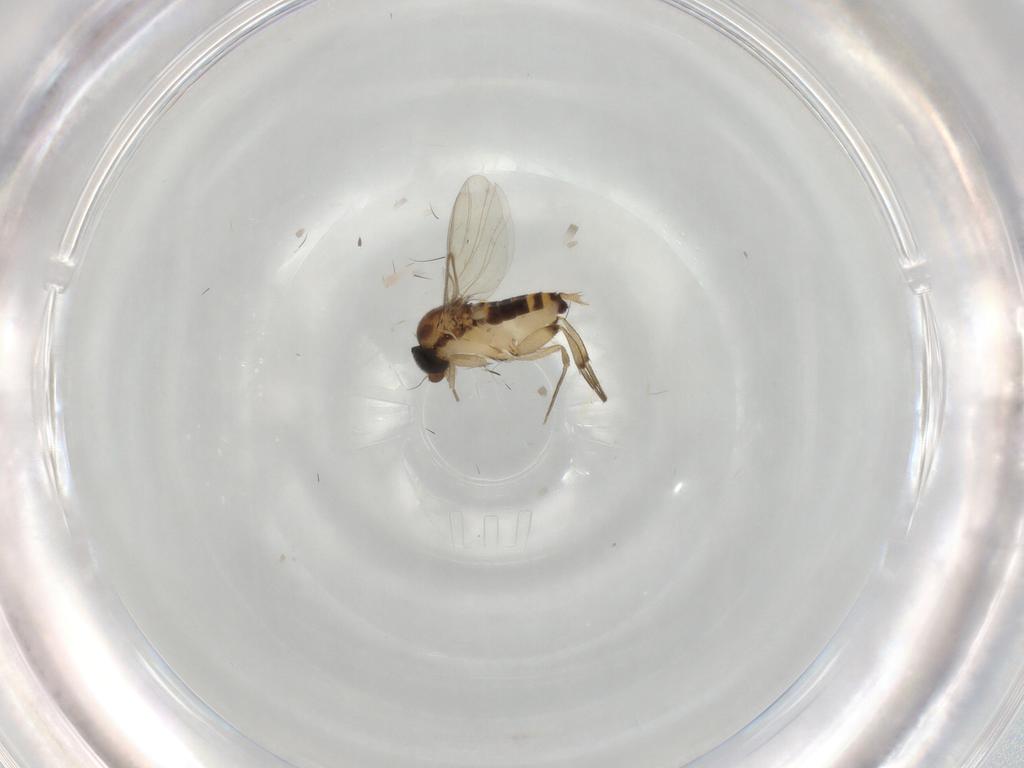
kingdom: Animalia
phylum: Arthropoda
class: Insecta
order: Diptera
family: Phoridae
